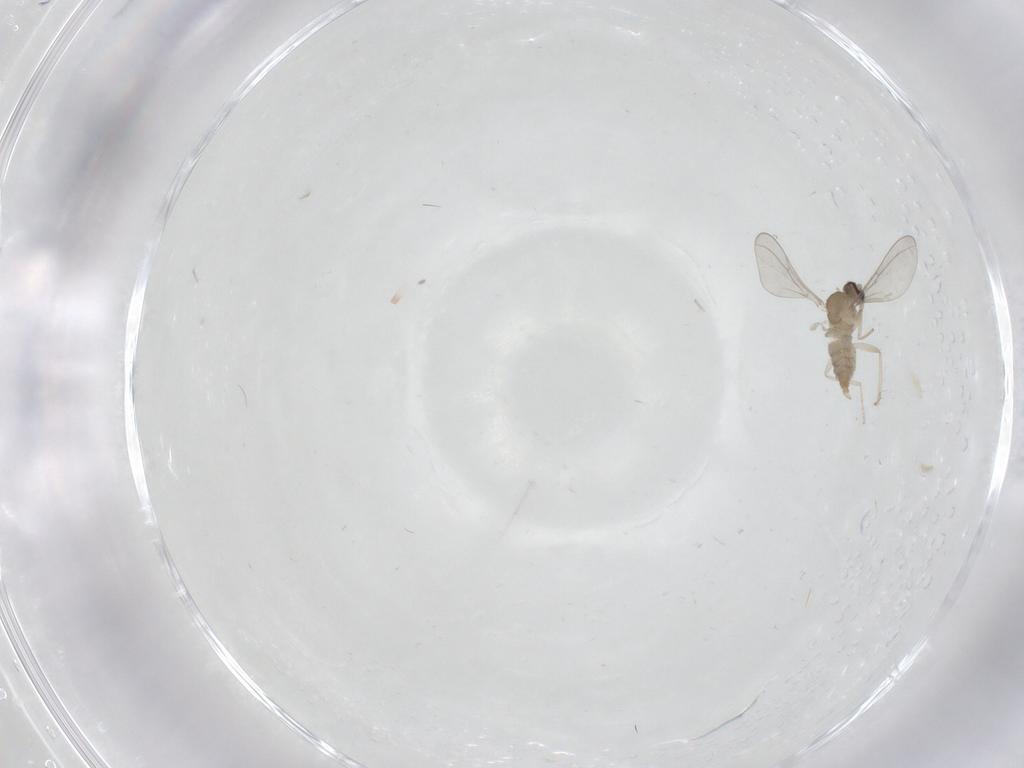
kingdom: Animalia
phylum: Arthropoda
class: Insecta
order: Diptera
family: Cecidomyiidae
